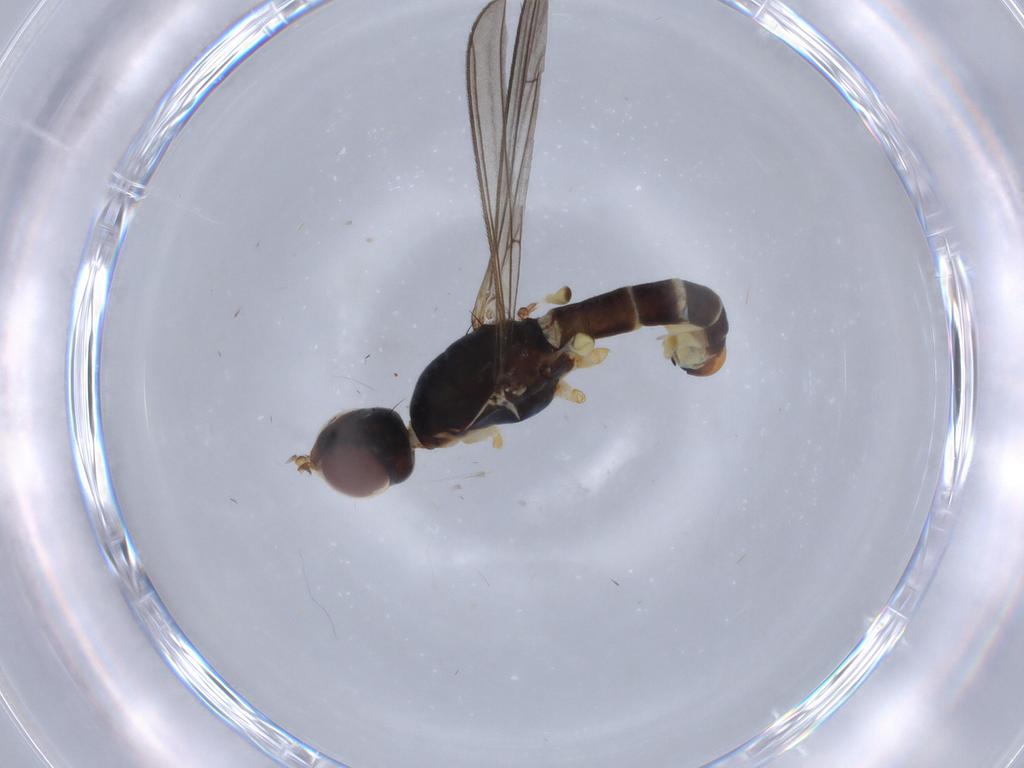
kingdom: Animalia
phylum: Arthropoda
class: Insecta
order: Diptera
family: Micropezidae
